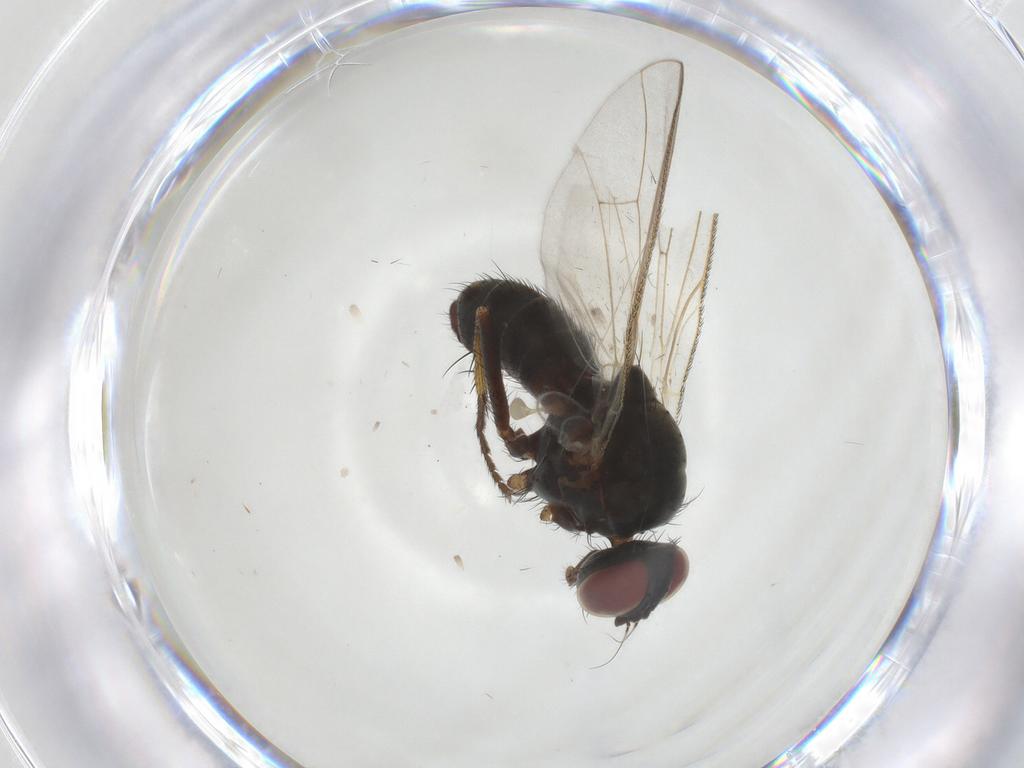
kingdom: Animalia
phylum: Arthropoda
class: Insecta
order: Diptera
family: Muscidae
